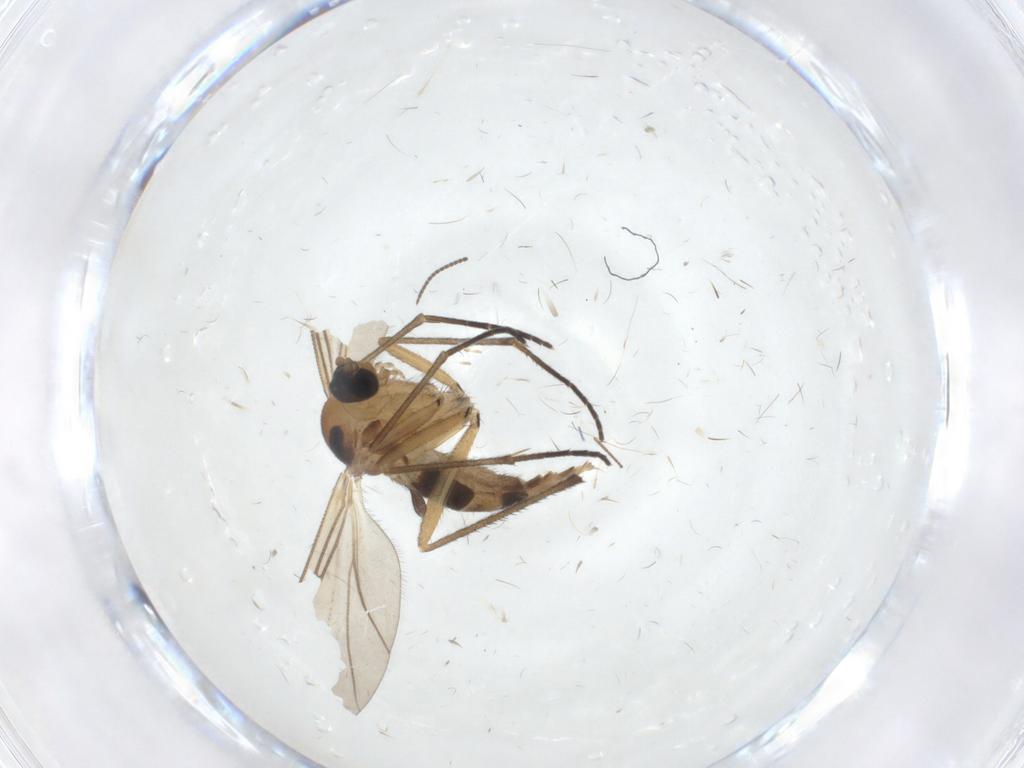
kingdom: Animalia
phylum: Arthropoda
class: Insecta
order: Diptera
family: Sciaridae
